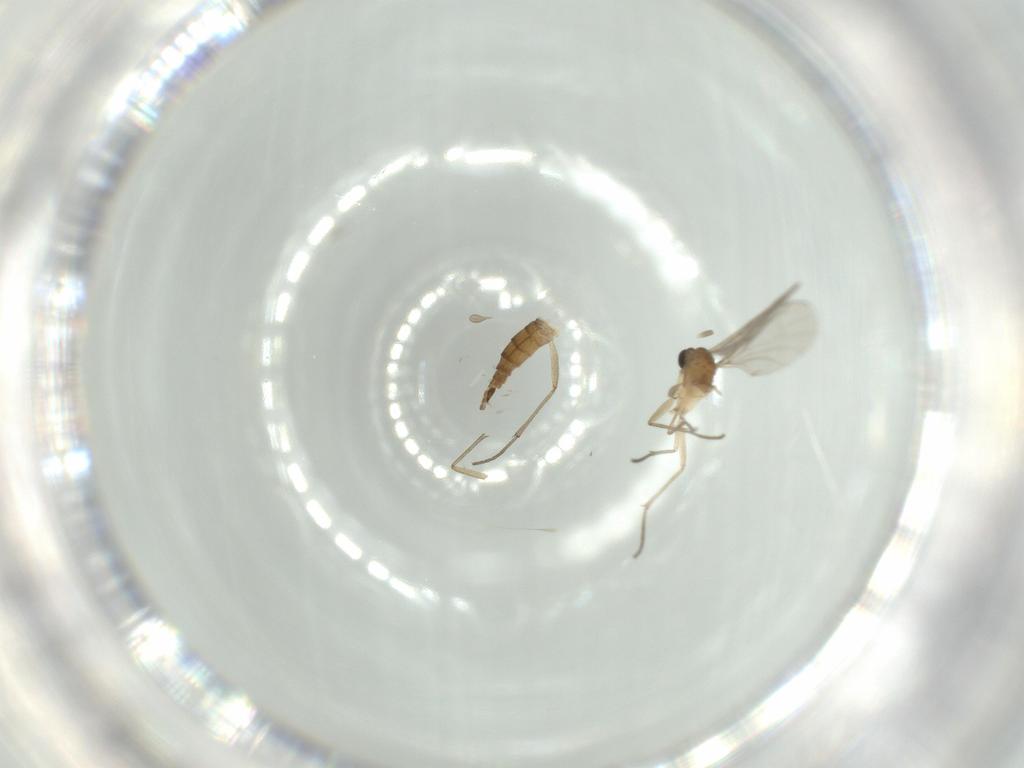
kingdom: Animalia
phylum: Arthropoda
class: Insecta
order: Diptera
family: Sciaridae
